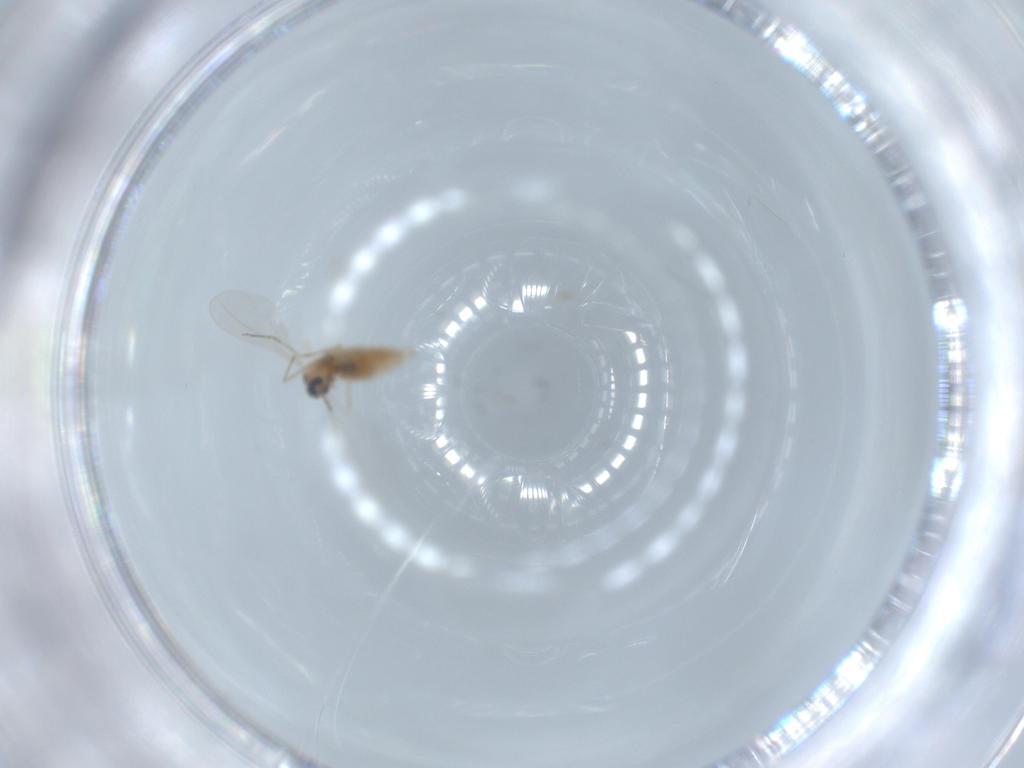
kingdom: Animalia
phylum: Arthropoda
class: Insecta
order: Diptera
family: Cecidomyiidae
